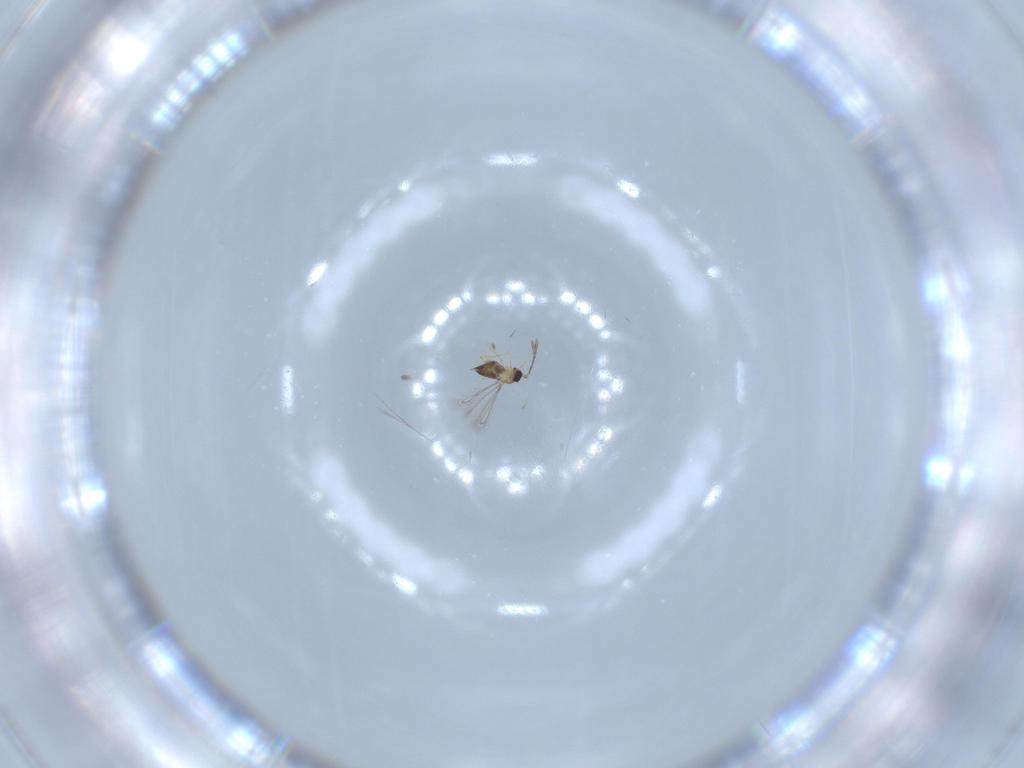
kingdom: Animalia
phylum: Arthropoda
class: Insecta
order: Hymenoptera
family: Mymaridae
